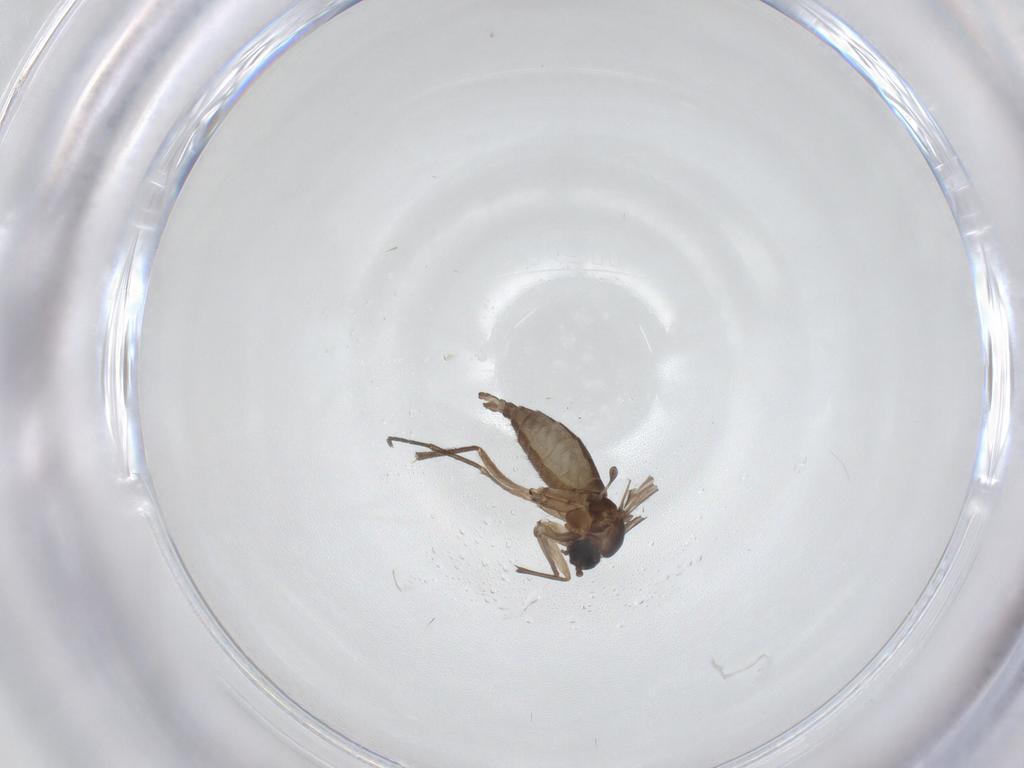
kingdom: Animalia
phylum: Arthropoda
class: Insecta
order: Diptera
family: Sciaridae
